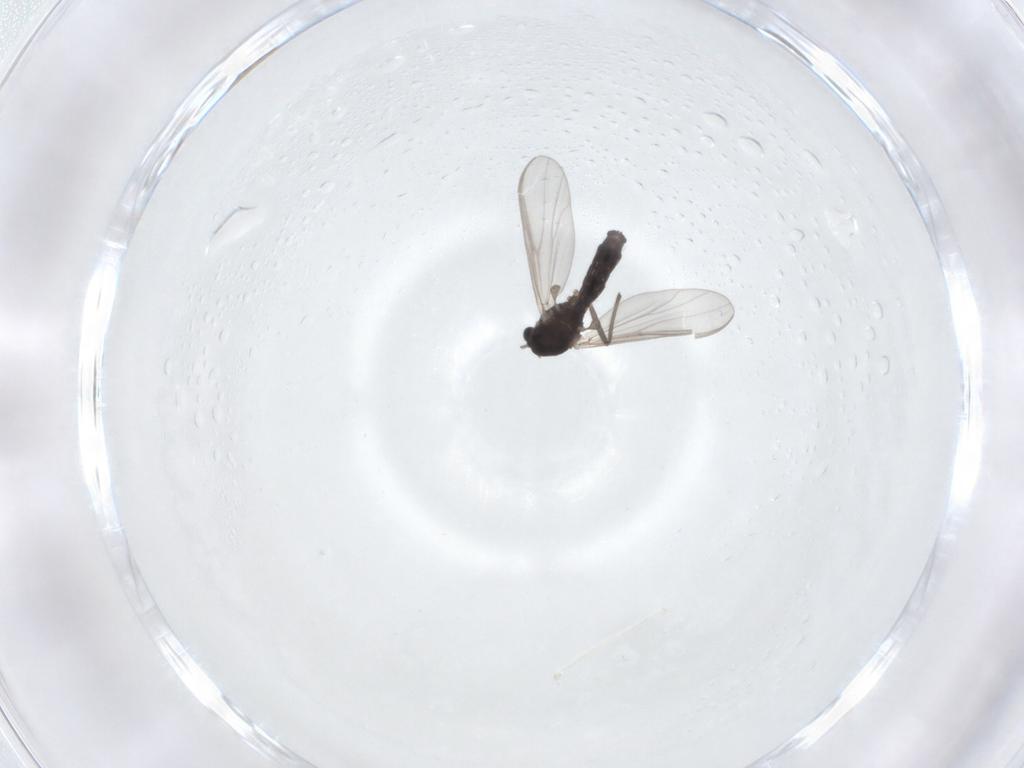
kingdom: Animalia
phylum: Arthropoda
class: Insecta
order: Diptera
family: Chironomidae
